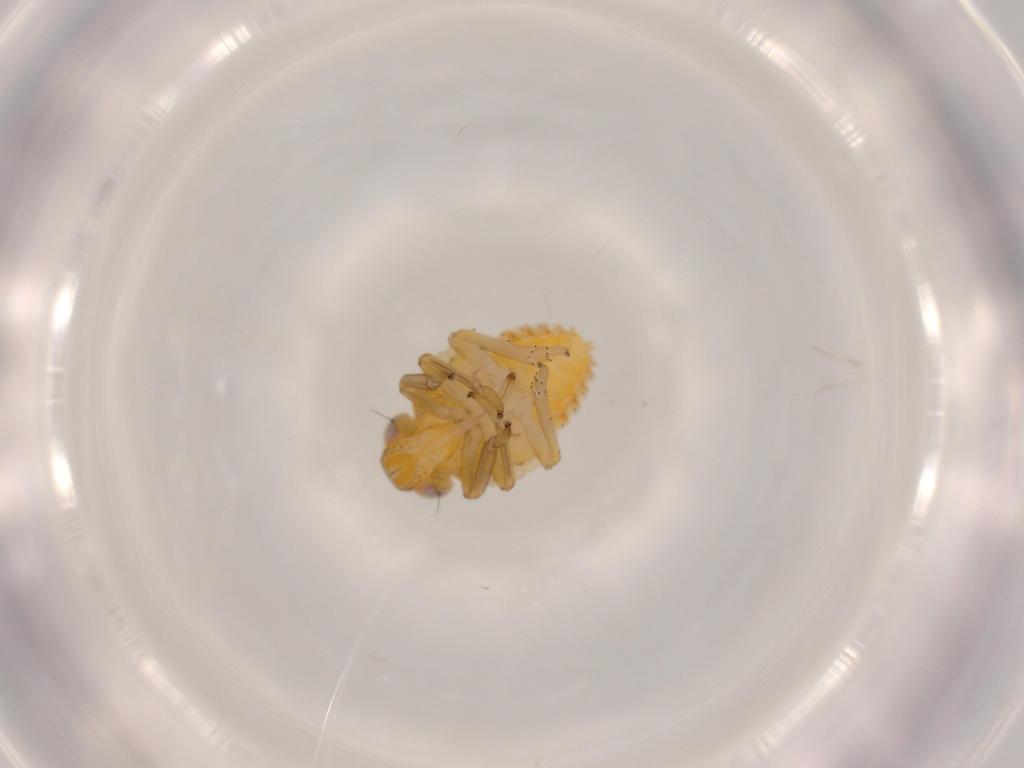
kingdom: Animalia
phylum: Arthropoda
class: Insecta
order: Hemiptera
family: Issidae
